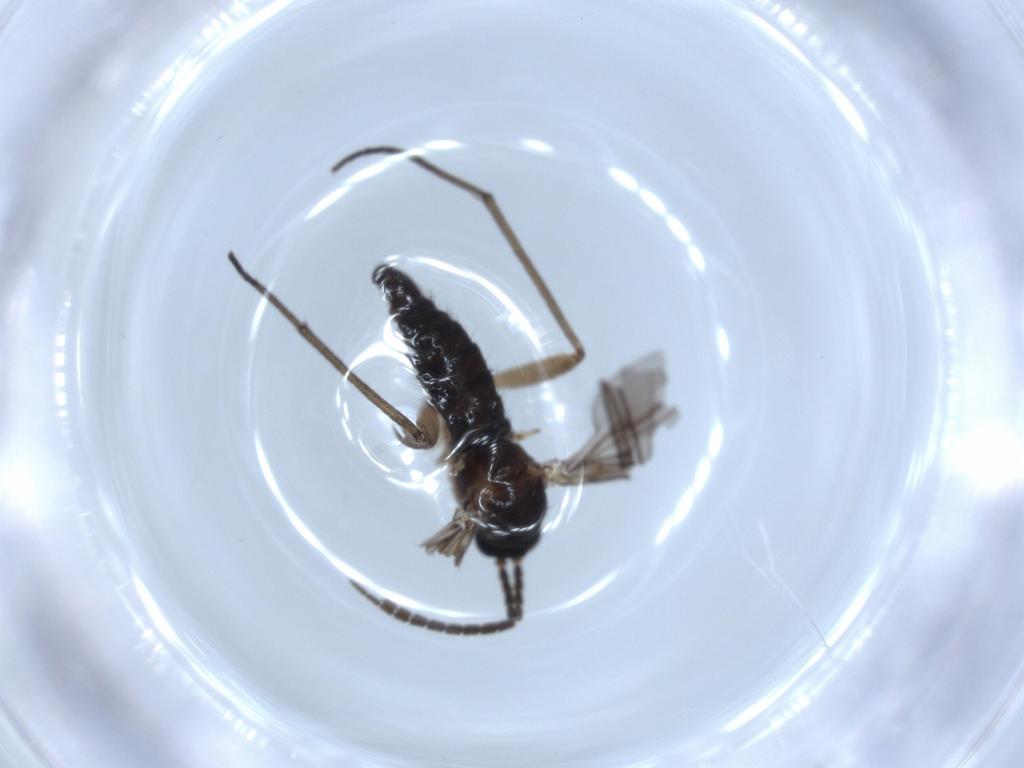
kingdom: Animalia
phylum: Arthropoda
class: Insecta
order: Diptera
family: Sciaridae
